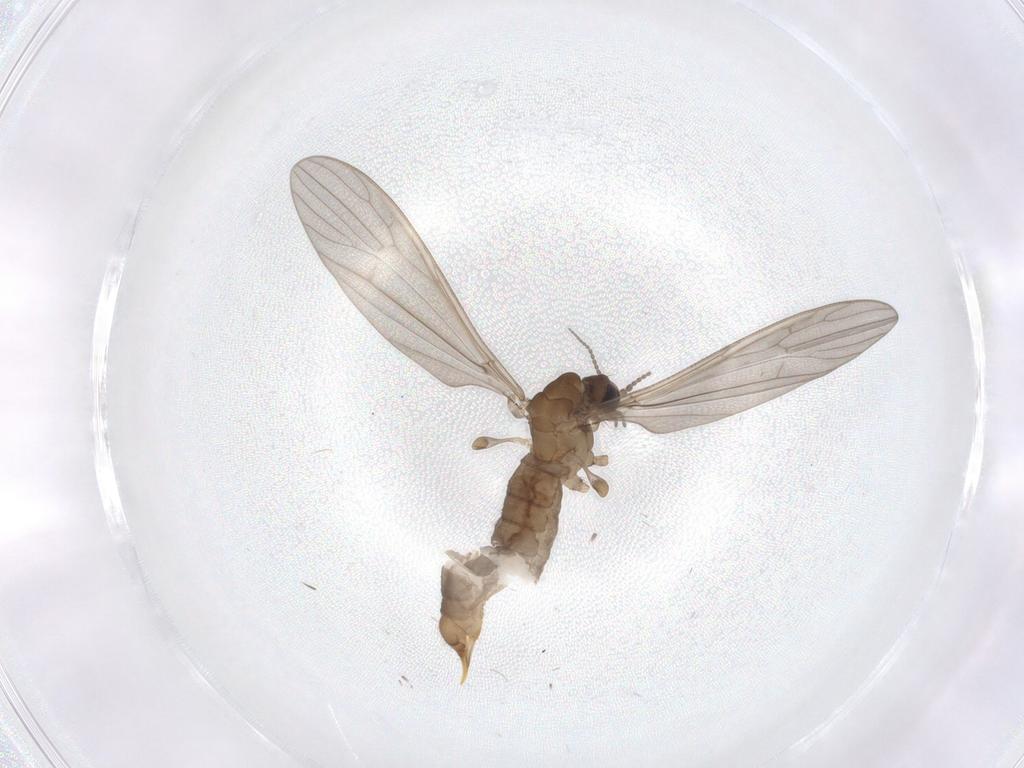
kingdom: Animalia
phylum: Arthropoda
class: Insecta
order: Diptera
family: Limoniidae
